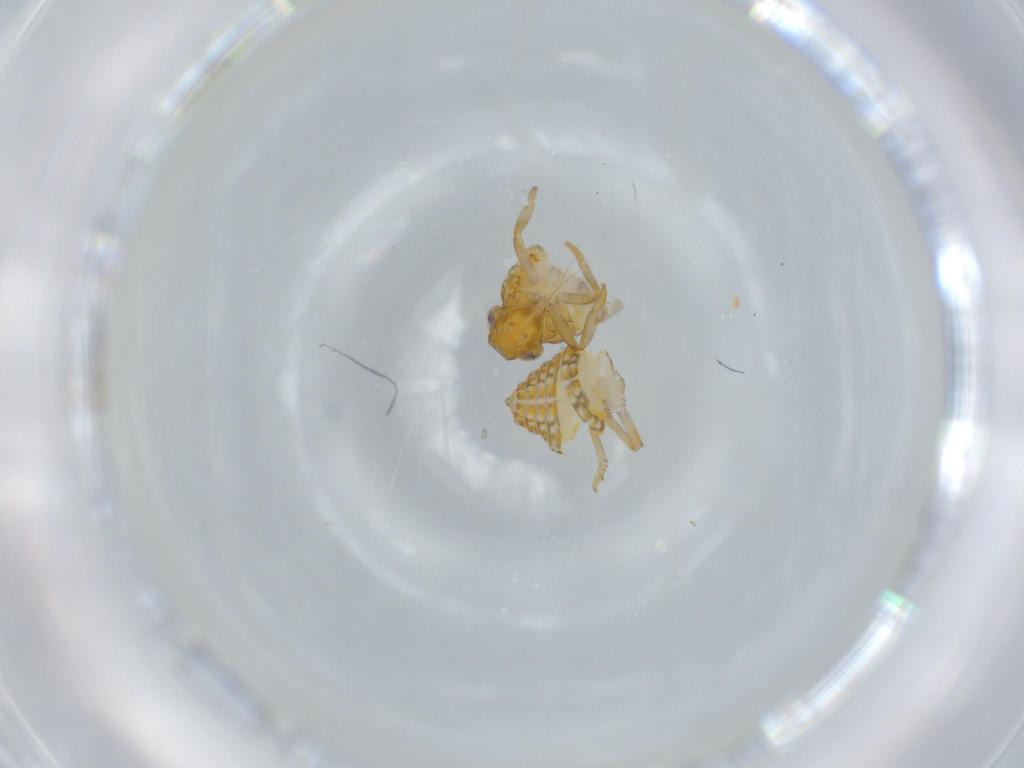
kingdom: Animalia
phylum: Arthropoda
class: Insecta
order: Hemiptera
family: Issidae
